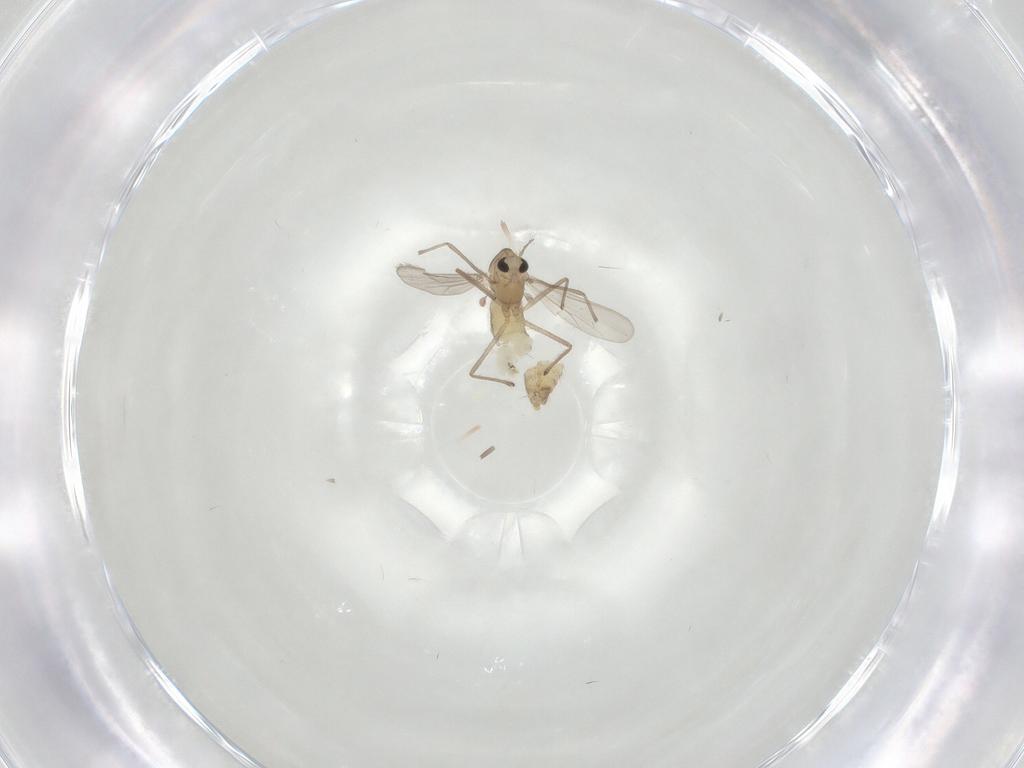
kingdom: Animalia
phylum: Arthropoda
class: Insecta
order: Diptera
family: Chironomidae
